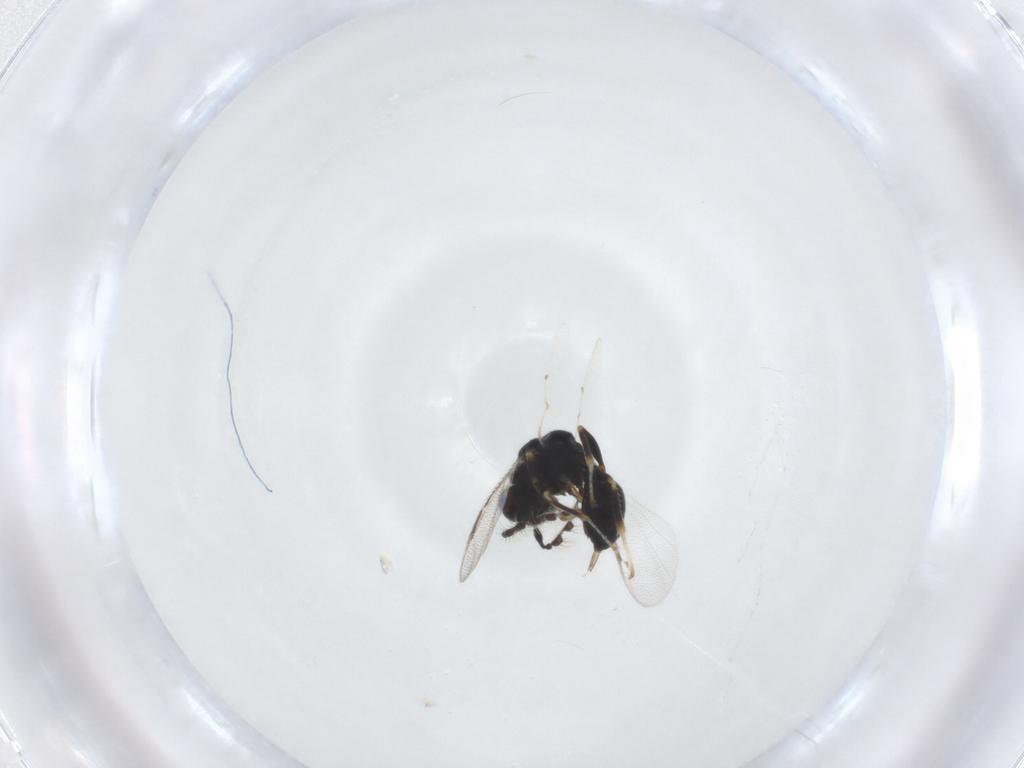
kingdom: Animalia
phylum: Arthropoda
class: Insecta
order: Hymenoptera
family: Eurytomidae
